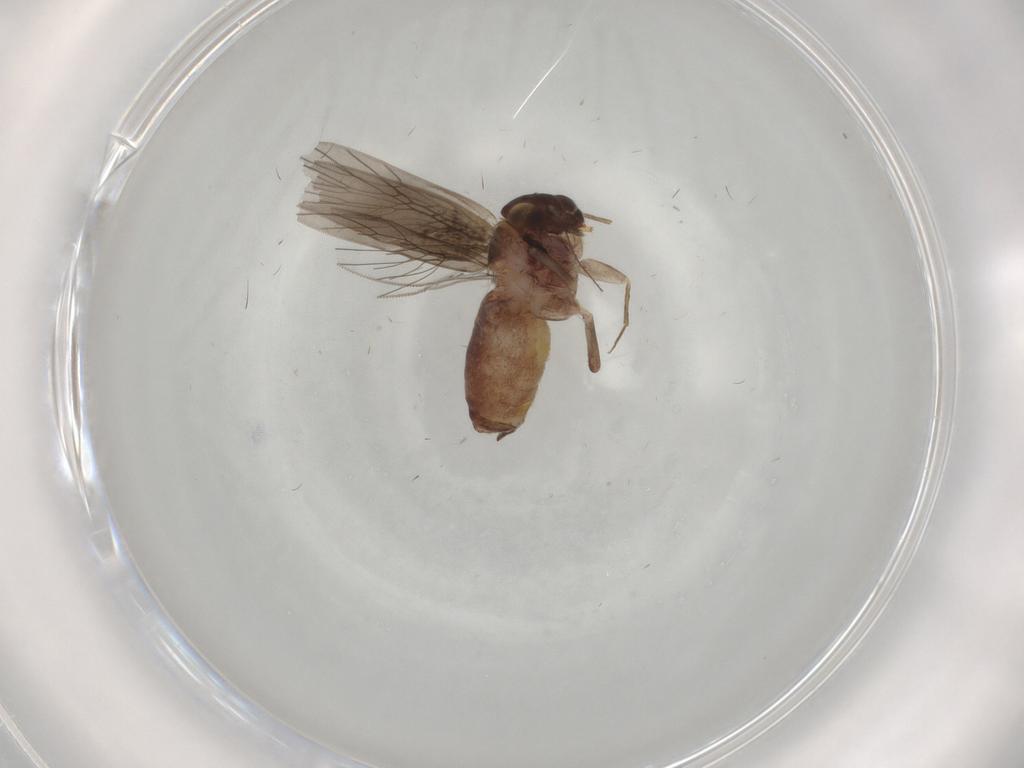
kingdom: Animalia
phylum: Arthropoda
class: Insecta
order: Psocodea
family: Lachesillidae
